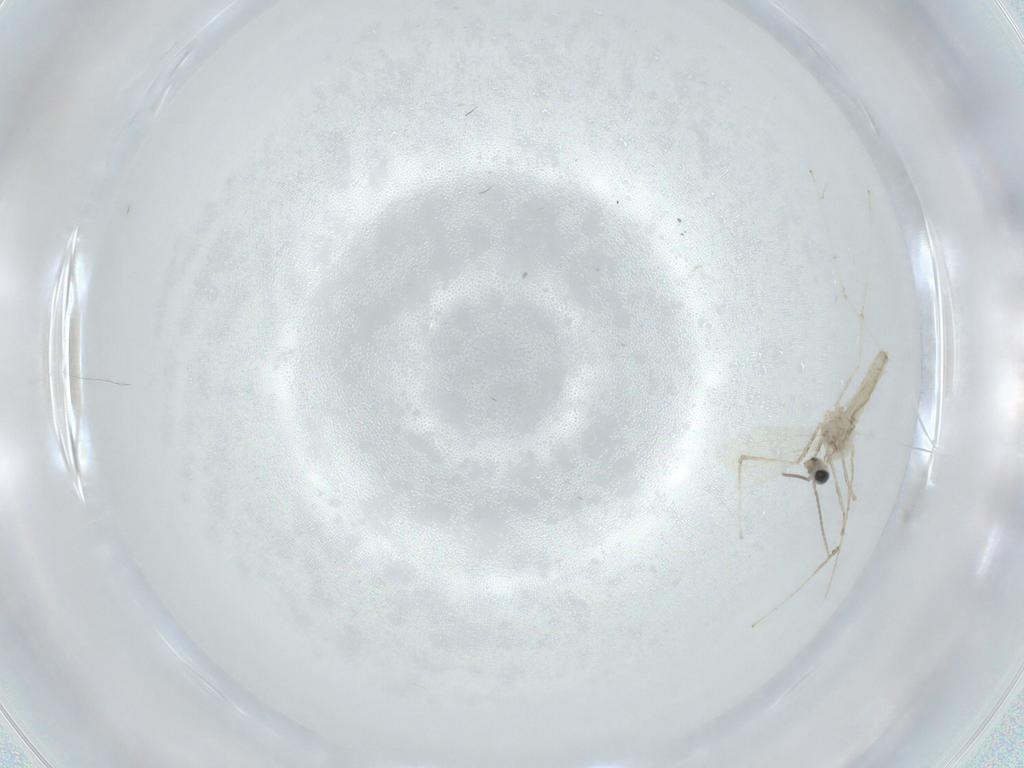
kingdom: Animalia
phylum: Arthropoda
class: Insecta
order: Diptera
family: Cecidomyiidae
